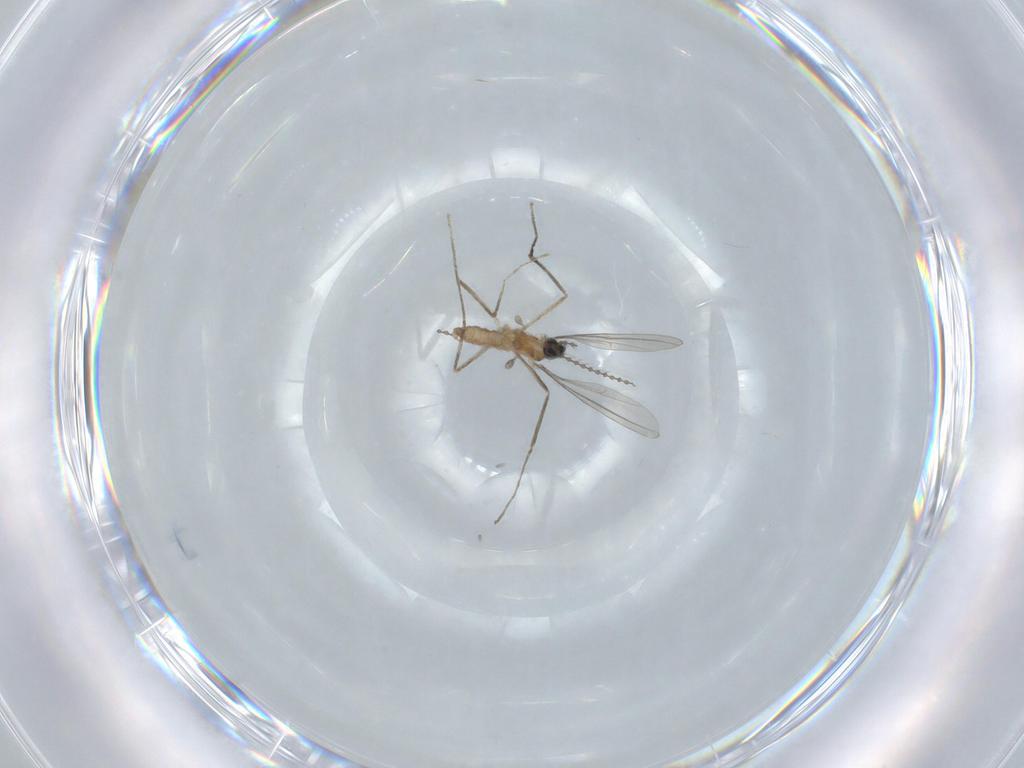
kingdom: Animalia
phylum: Arthropoda
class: Insecta
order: Diptera
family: Cecidomyiidae
